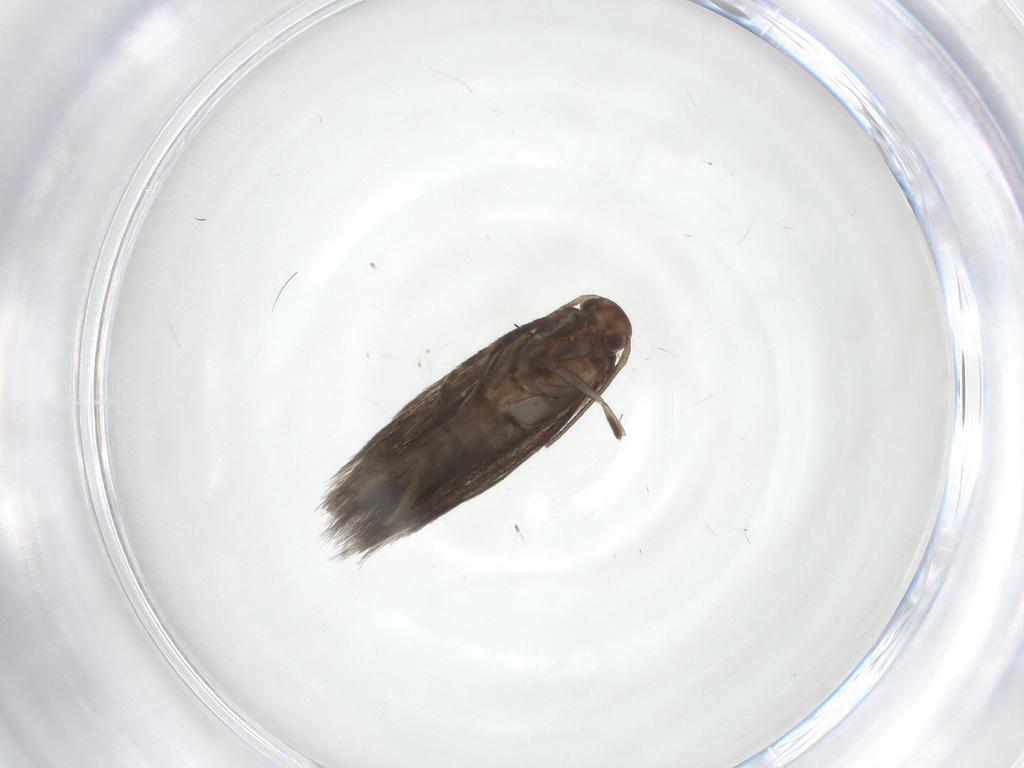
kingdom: Animalia
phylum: Arthropoda
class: Insecta
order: Lepidoptera
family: Elachistidae
